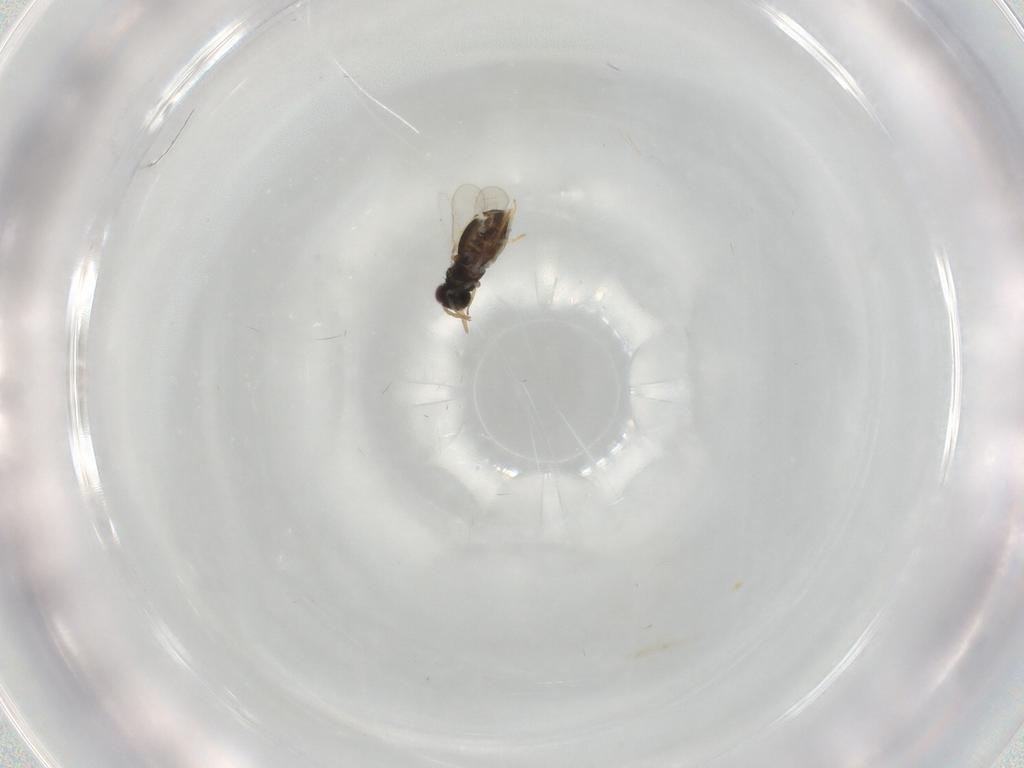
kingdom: Animalia
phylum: Arthropoda
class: Insecta
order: Hymenoptera
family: Aphelinidae
